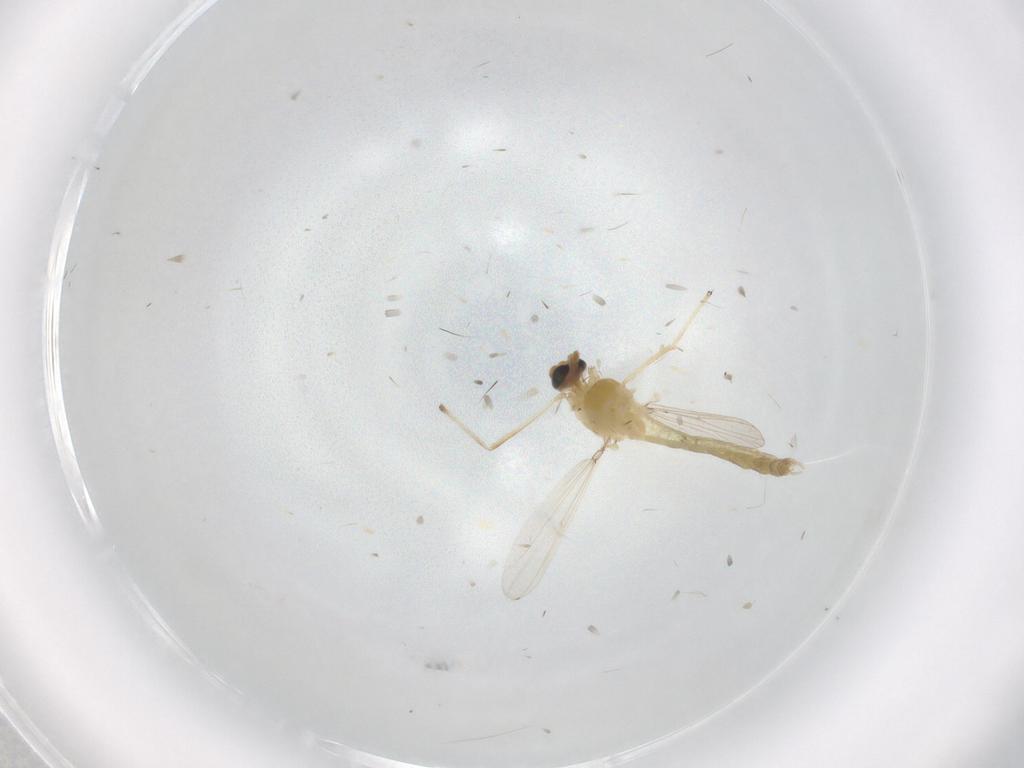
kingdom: Animalia
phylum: Arthropoda
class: Insecta
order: Diptera
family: Chironomidae
